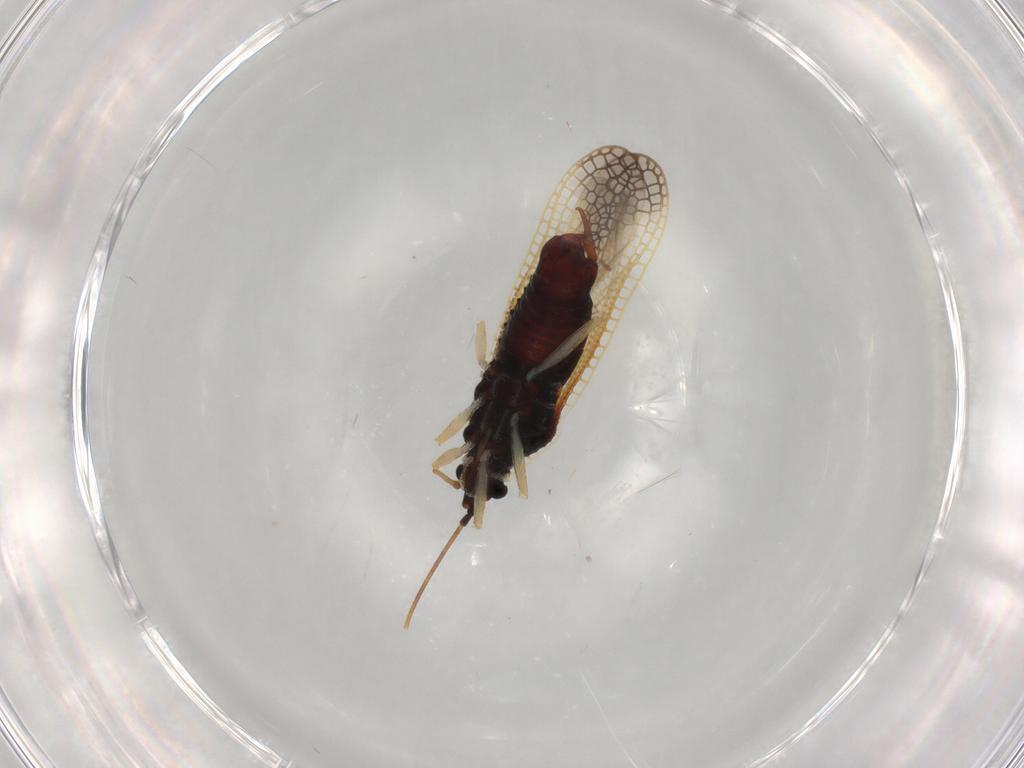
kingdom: Animalia
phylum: Arthropoda
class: Insecta
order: Hemiptera
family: Tingidae
